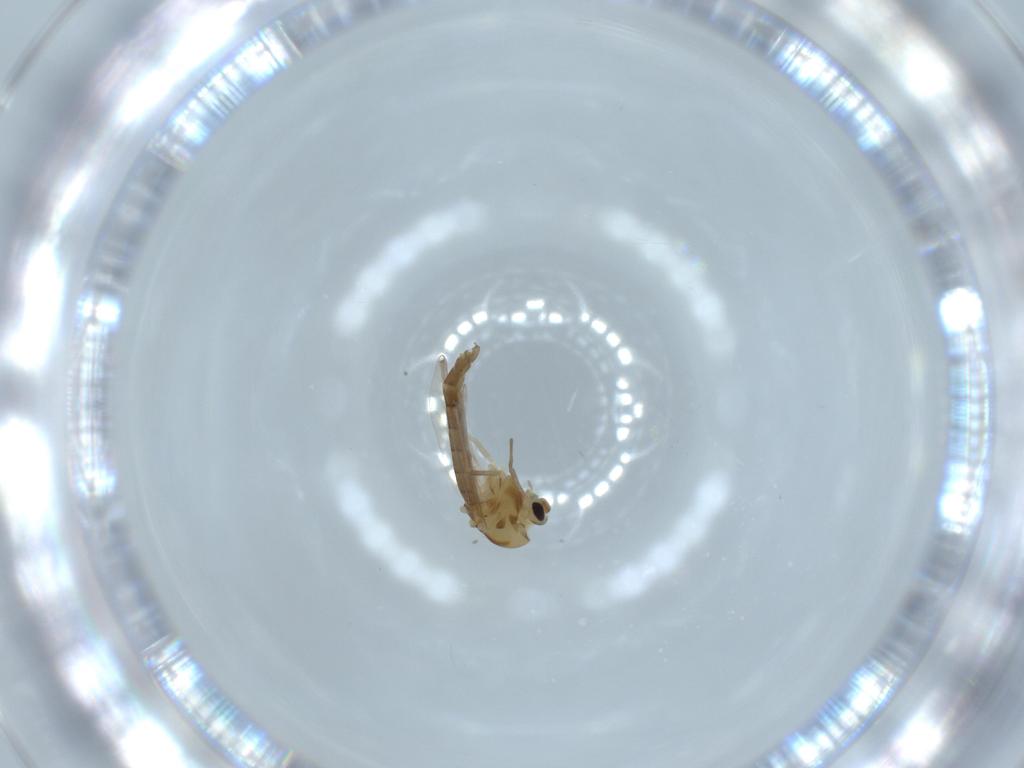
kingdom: Animalia
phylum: Arthropoda
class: Insecta
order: Diptera
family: Chironomidae
